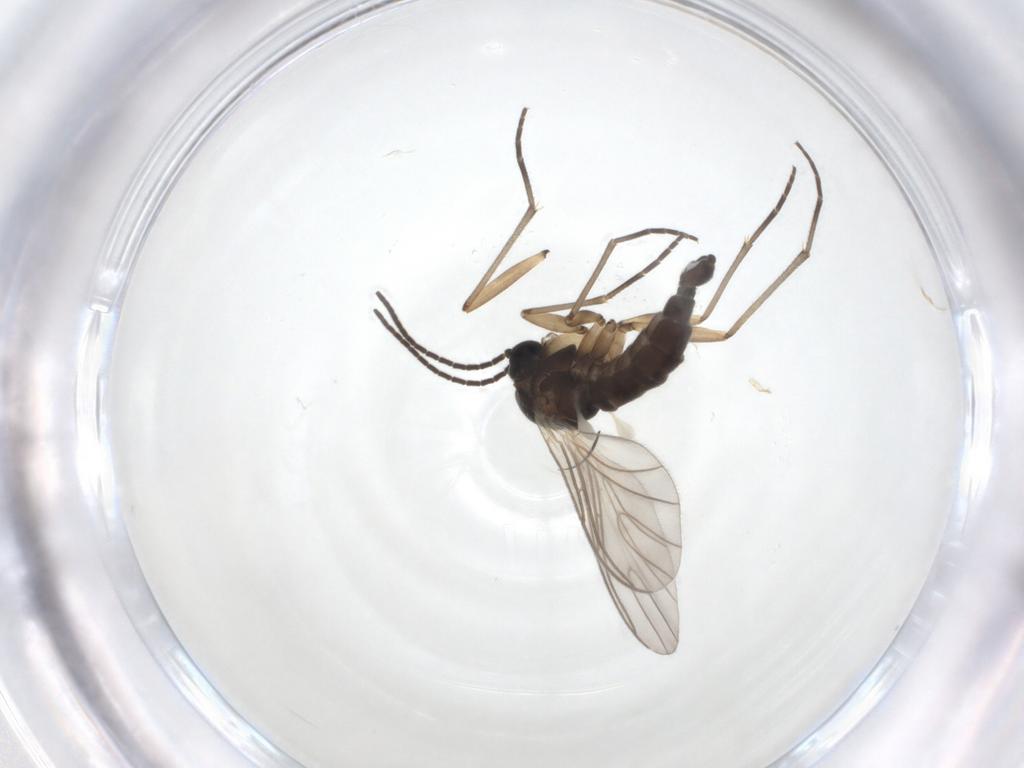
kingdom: Animalia
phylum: Arthropoda
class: Insecta
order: Diptera
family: Sciaridae
